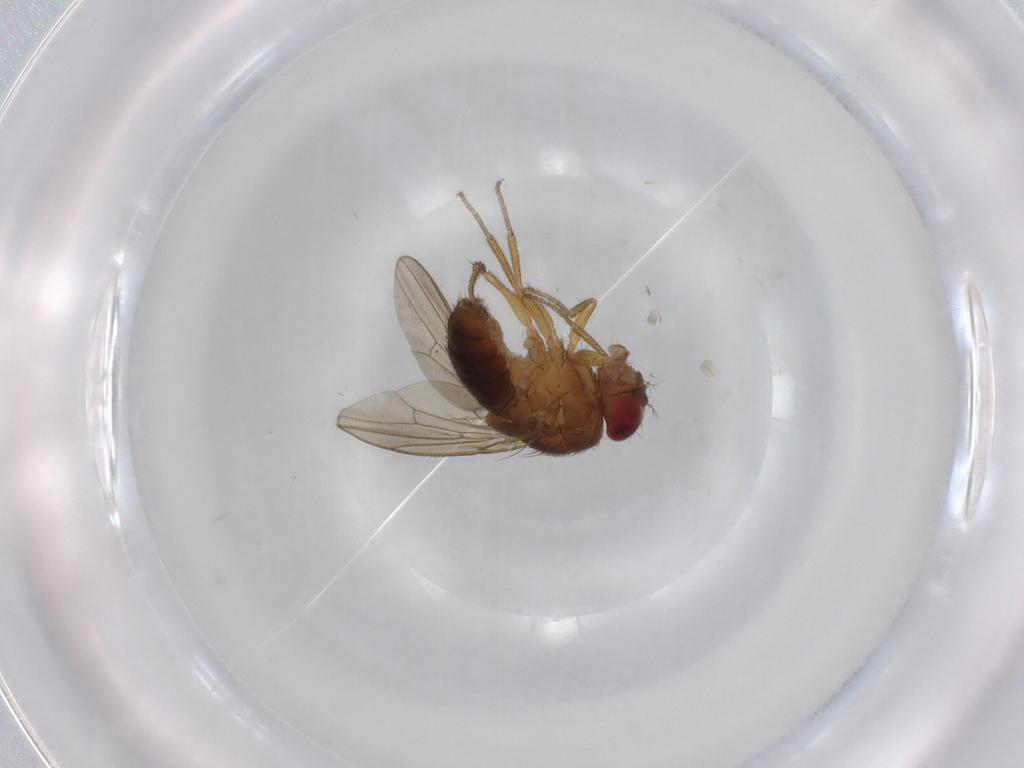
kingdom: Animalia
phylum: Arthropoda
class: Insecta
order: Diptera
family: Drosophilidae
